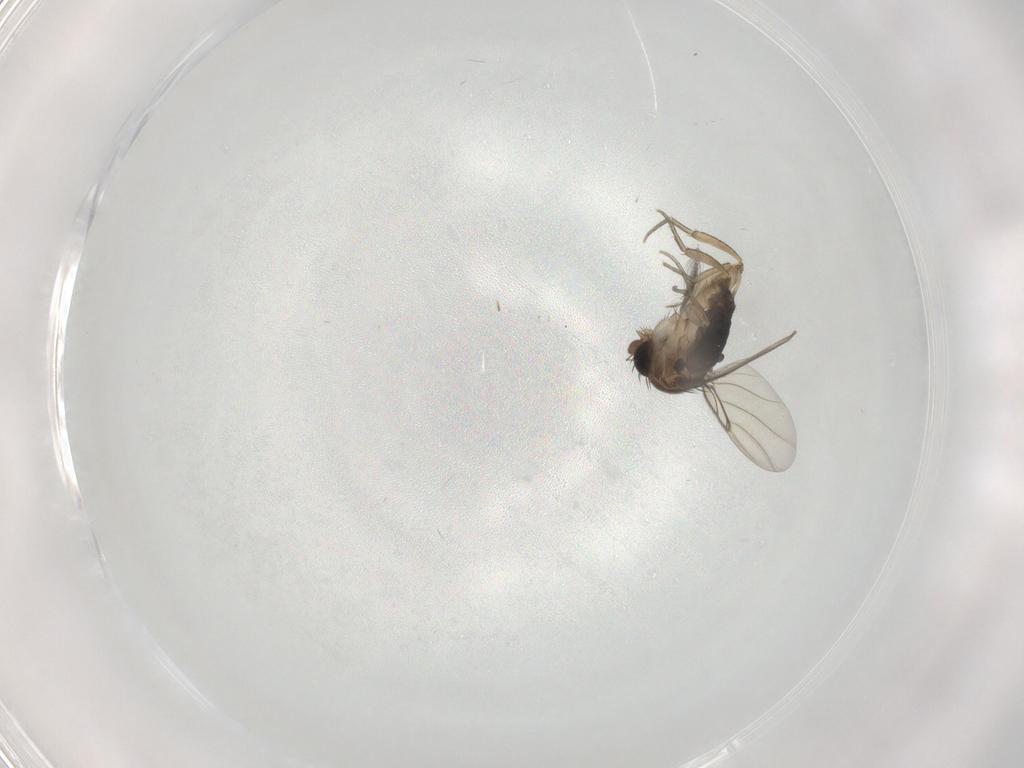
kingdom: Animalia
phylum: Arthropoda
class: Insecta
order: Diptera
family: Phoridae
